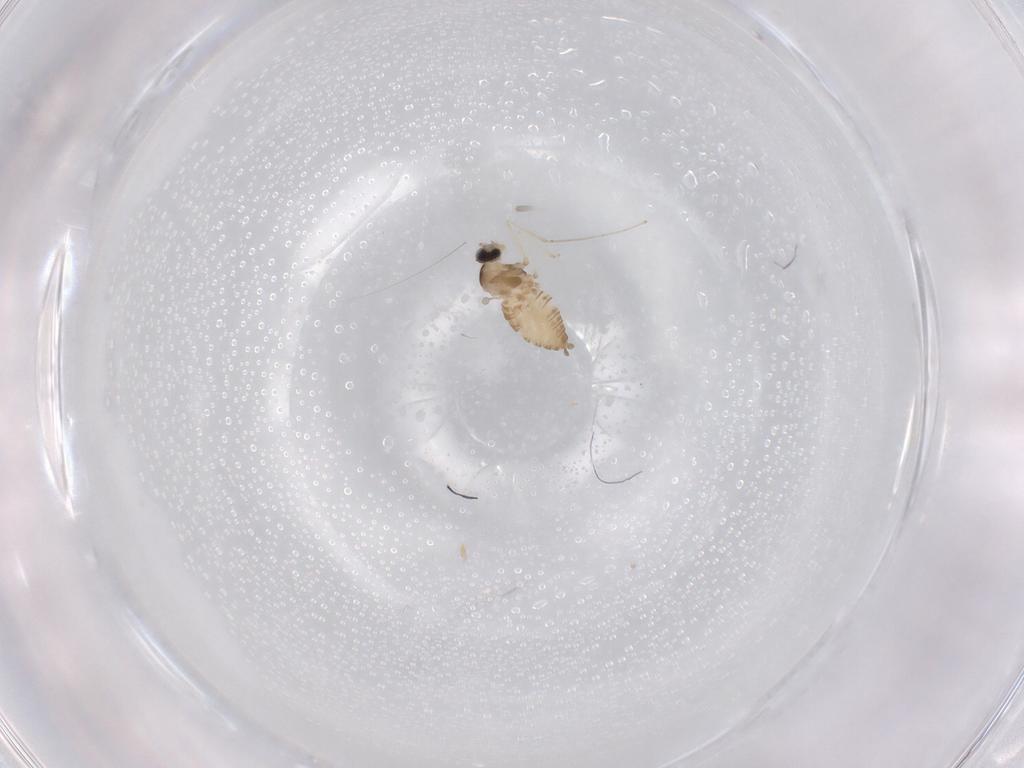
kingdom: Animalia
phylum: Arthropoda
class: Insecta
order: Diptera
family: Cecidomyiidae
